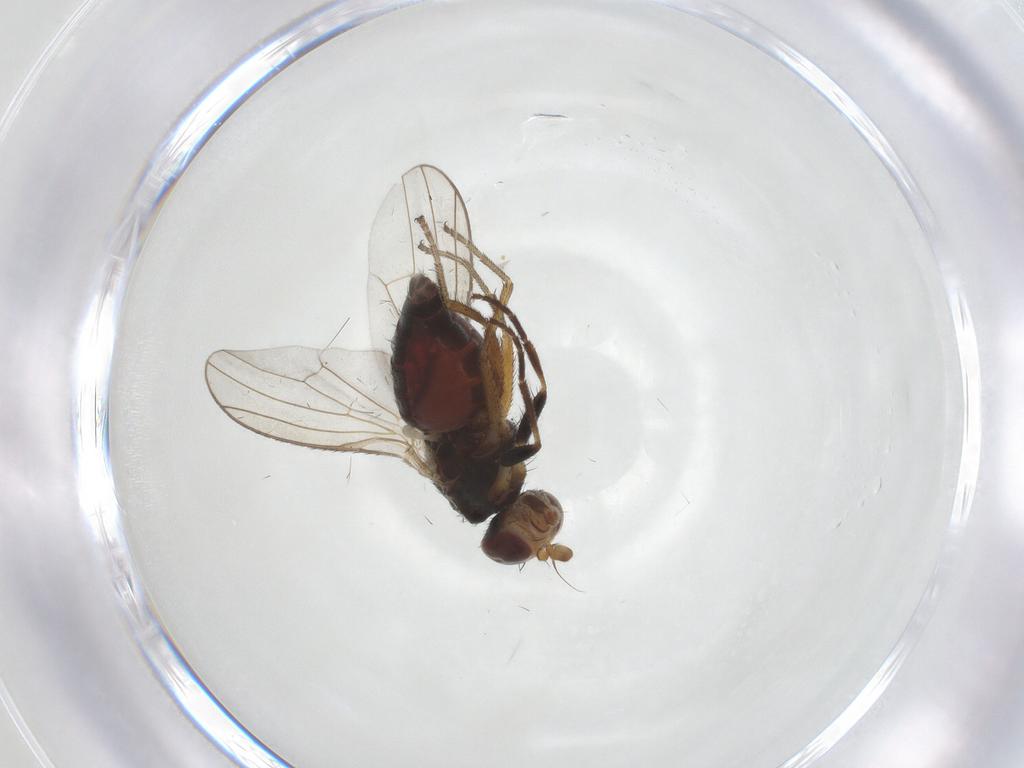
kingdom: Animalia
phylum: Arthropoda
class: Insecta
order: Diptera
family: Heleomyzidae
